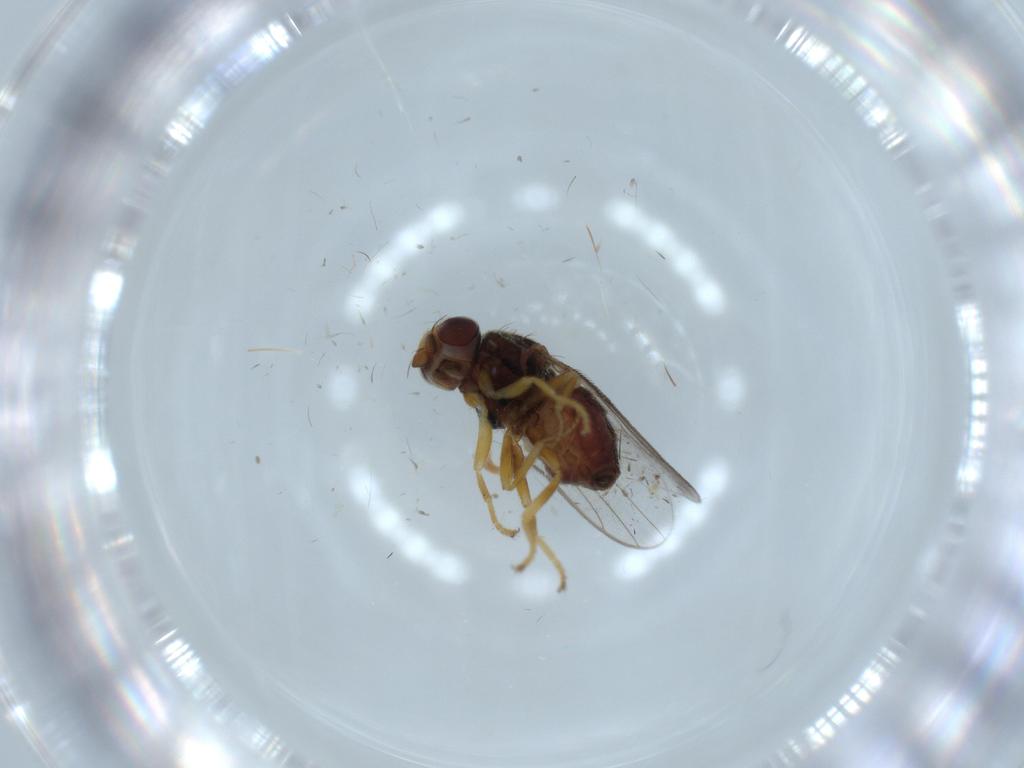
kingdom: Animalia
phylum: Arthropoda
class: Insecta
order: Diptera
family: Chloropidae
